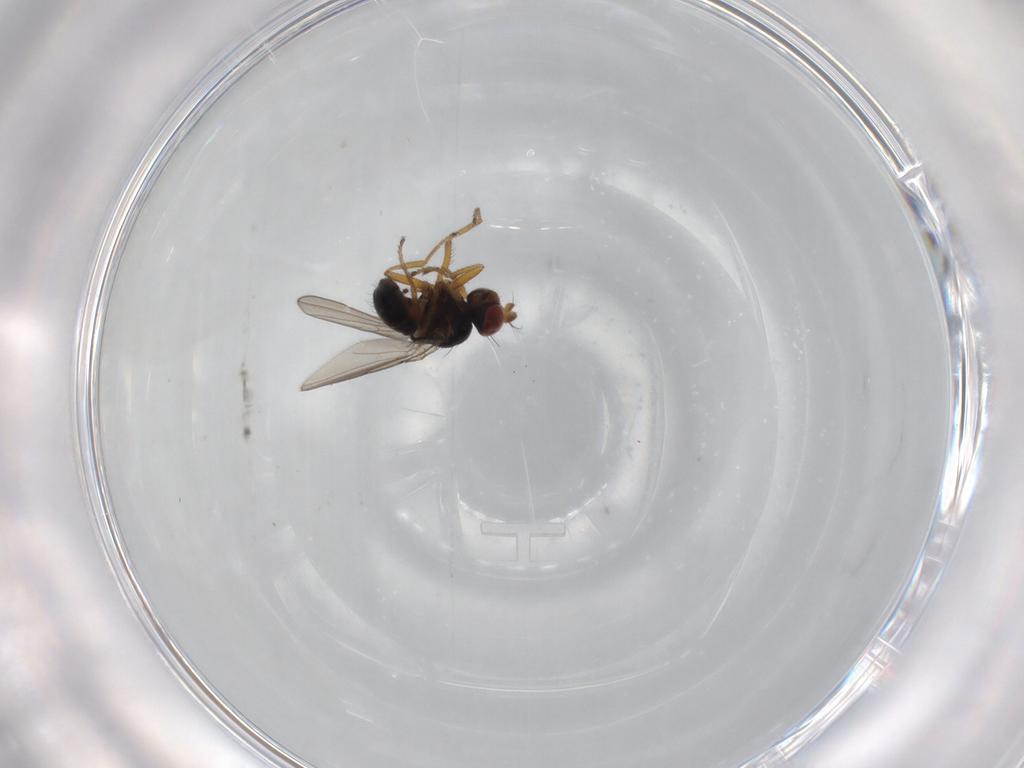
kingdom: Animalia
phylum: Arthropoda
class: Insecta
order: Diptera
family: Ephydridae
